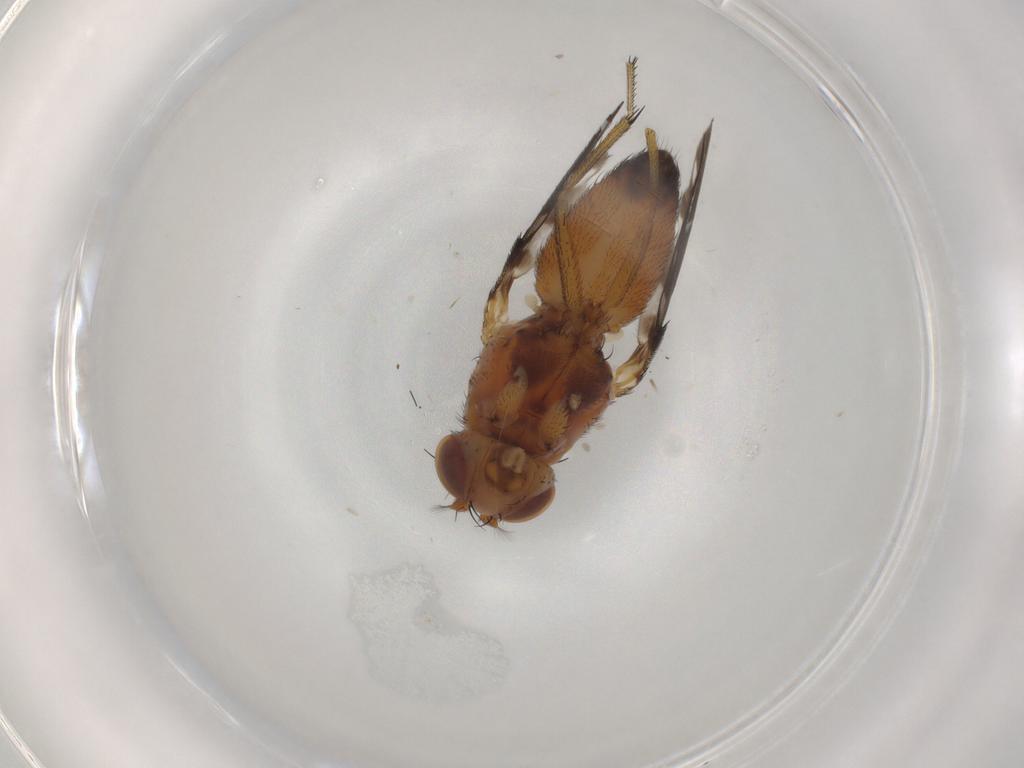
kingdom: Animalia
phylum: Arthropoda
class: Insecta
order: Diptera
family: Ephydridae
